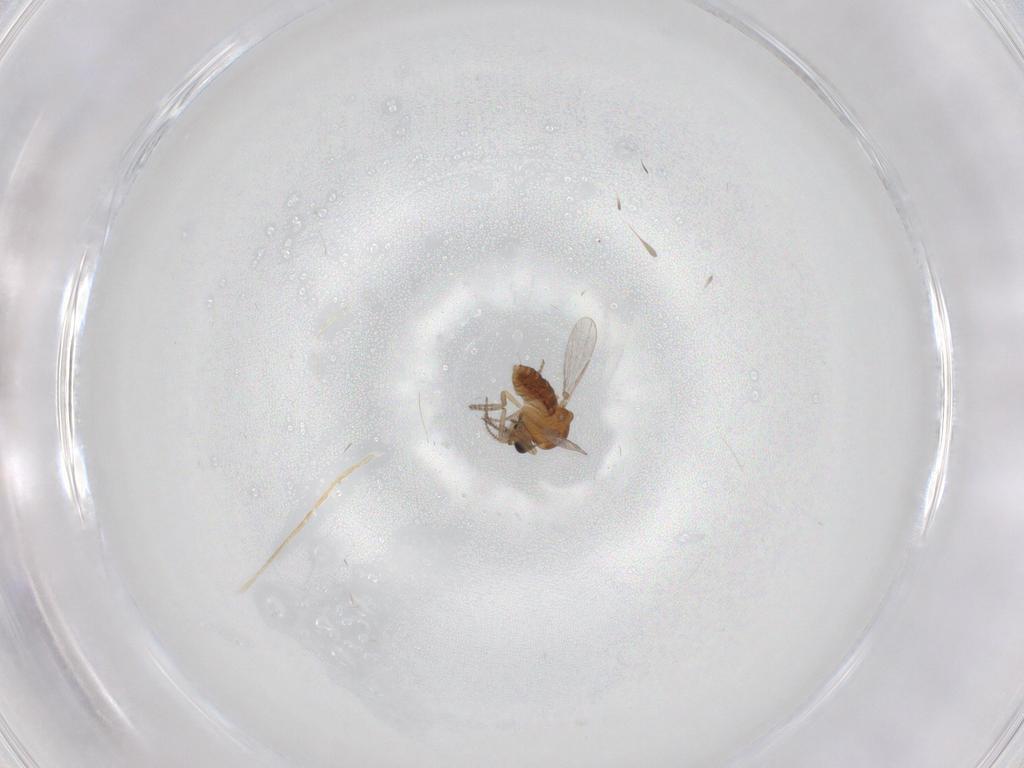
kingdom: Animalia
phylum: Arthropoda
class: Insecta
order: Diptera
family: Ceratopogonidae
